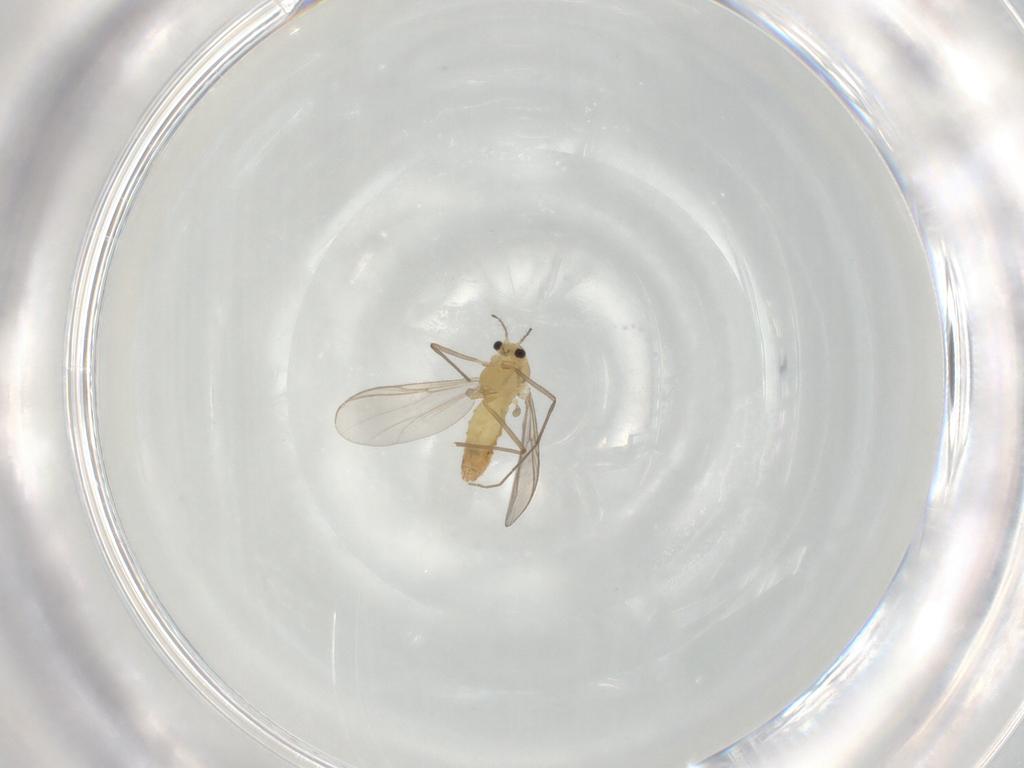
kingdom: Animalia
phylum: Arthropoda
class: Insecta
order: Diptera
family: Chironomidae
